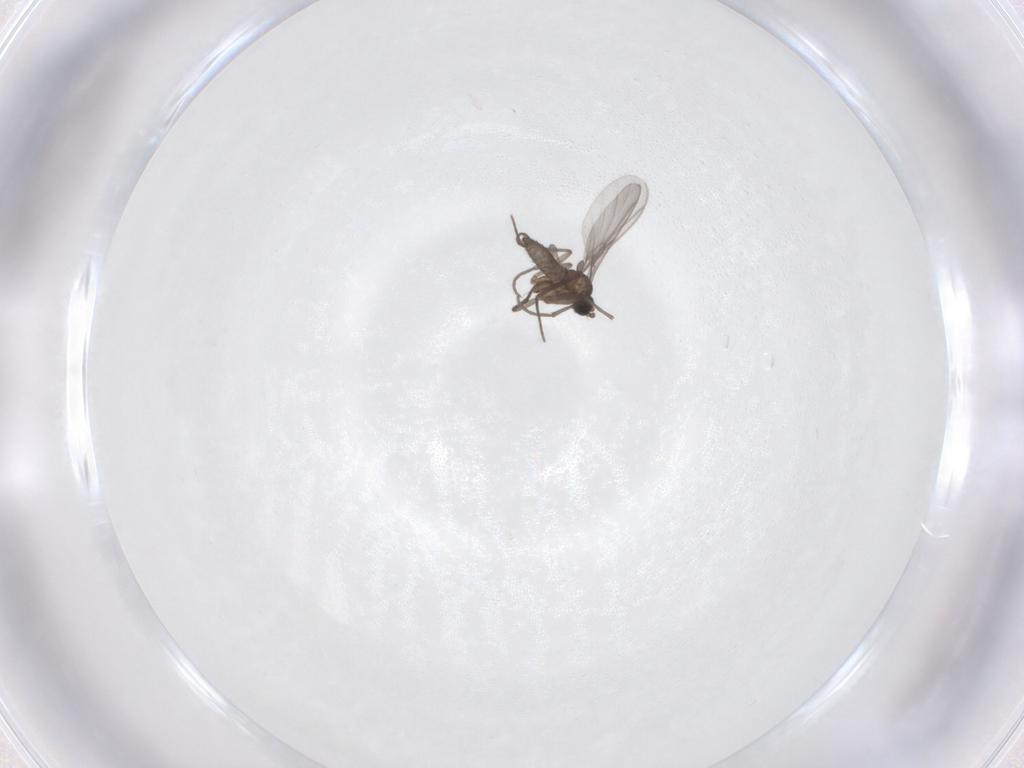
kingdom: Animalia
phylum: Arthropoda
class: Insecta
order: Diptera
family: Sciaridae
